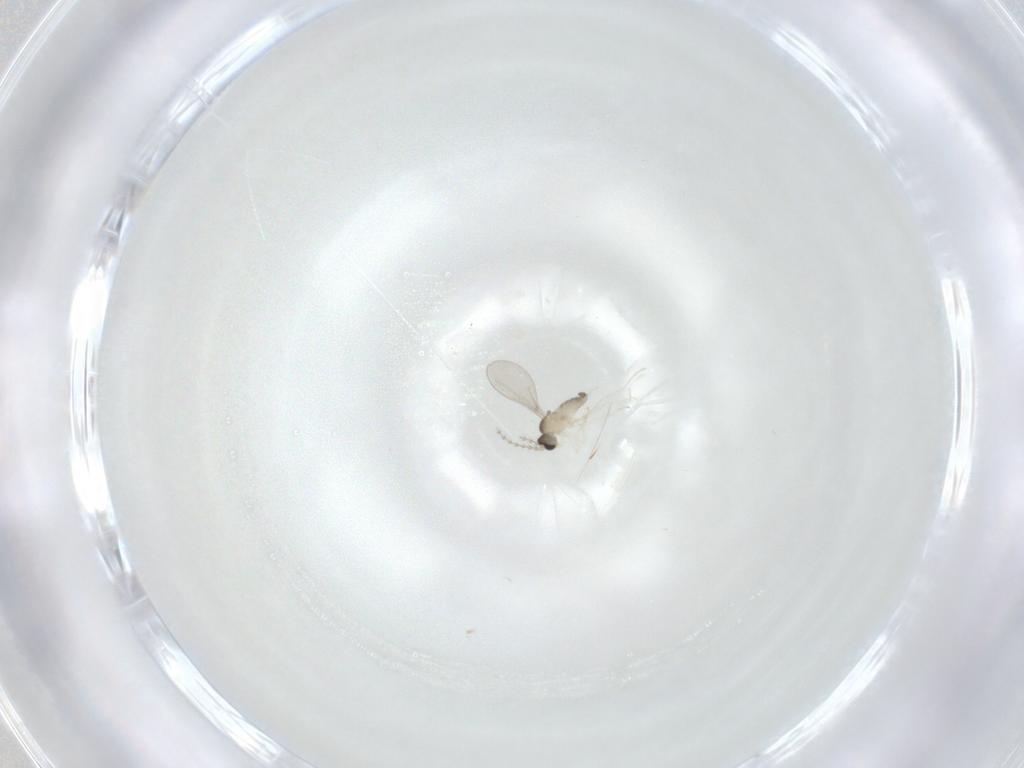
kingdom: Animalia
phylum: Arthropoda
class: Insecta
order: Diptera
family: Cecidomyiidae
